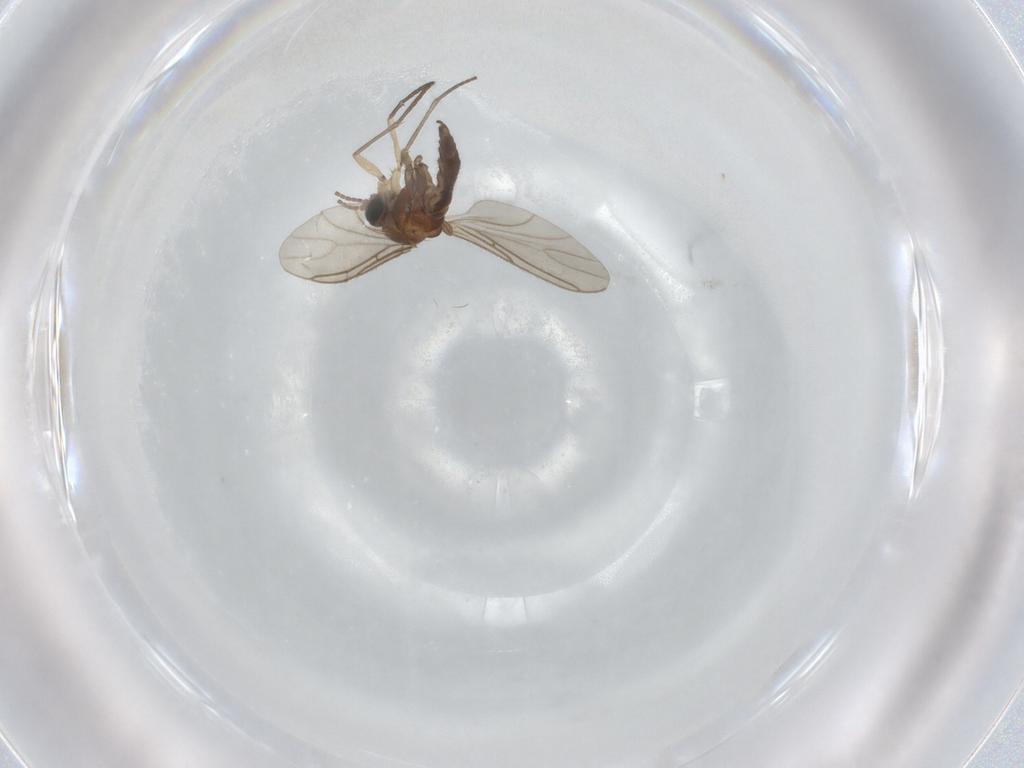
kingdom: Animalia
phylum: Arthropoda
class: Insecta
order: Diptera
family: Sciaridae
